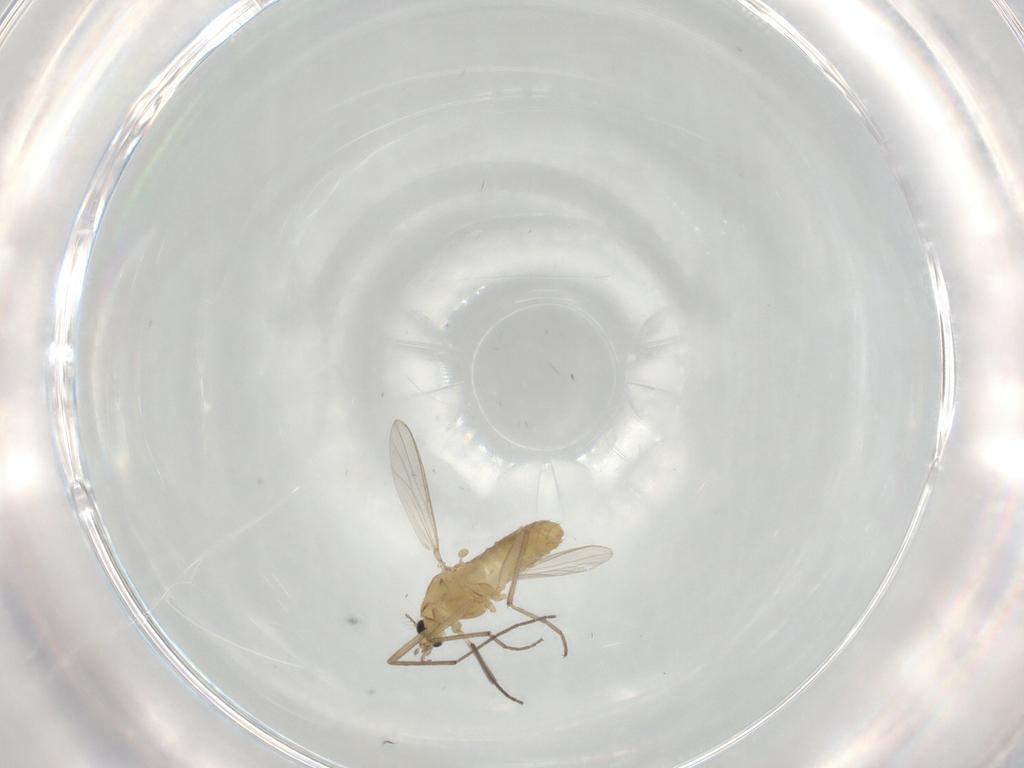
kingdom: Animalia
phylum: Arthropoda
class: Insecta
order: Diptera
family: Chironomidae
